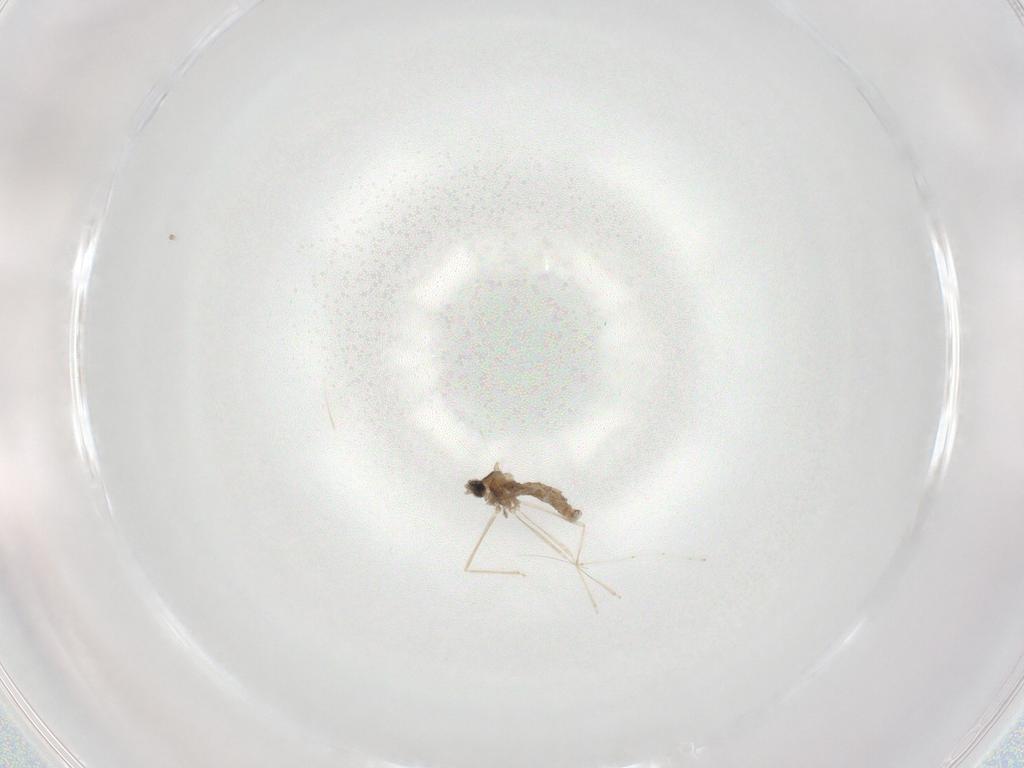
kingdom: Animalia
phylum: Arthropoda
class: Insecta
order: Diptera
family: Cecidomyiidae
